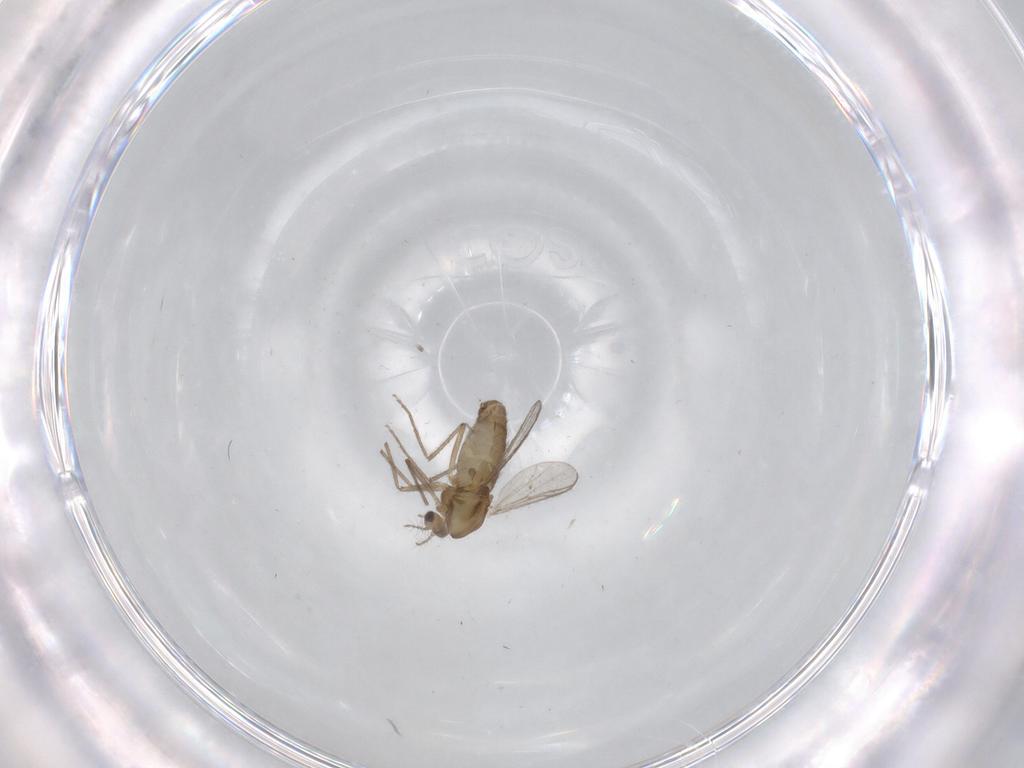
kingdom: Animalia
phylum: Arthropoda
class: Insecta
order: Diptera
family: Chironomidae
